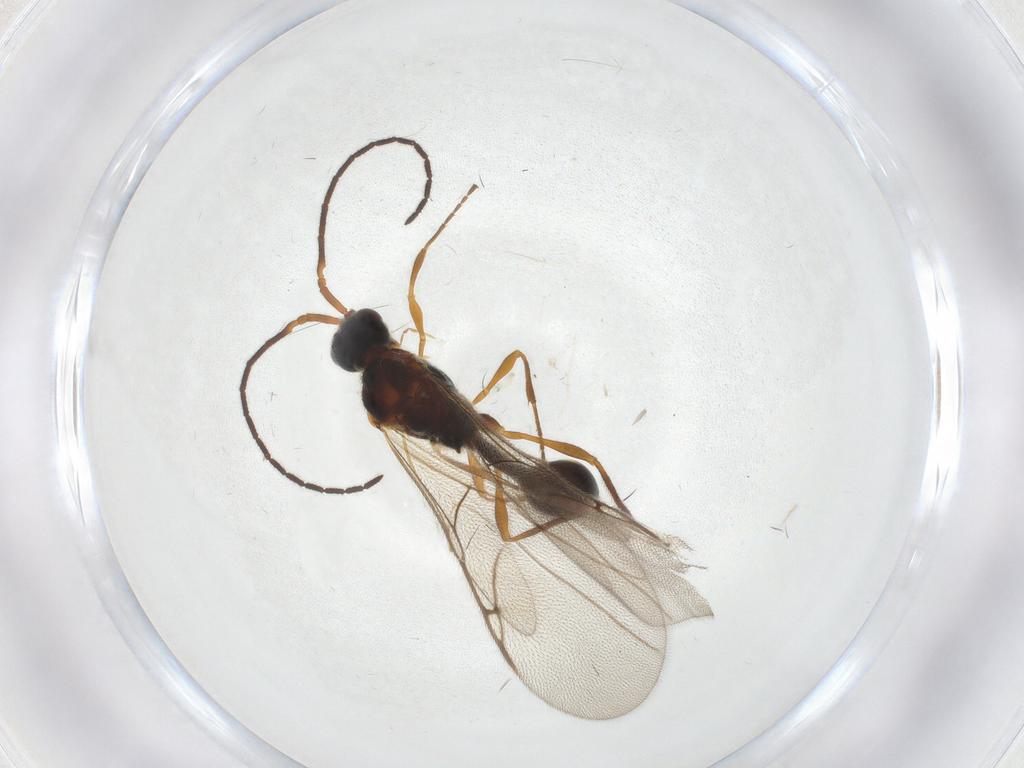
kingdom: Animalia
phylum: Arthropoda
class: Insecta
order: Hymenoptera
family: Diapriidae
